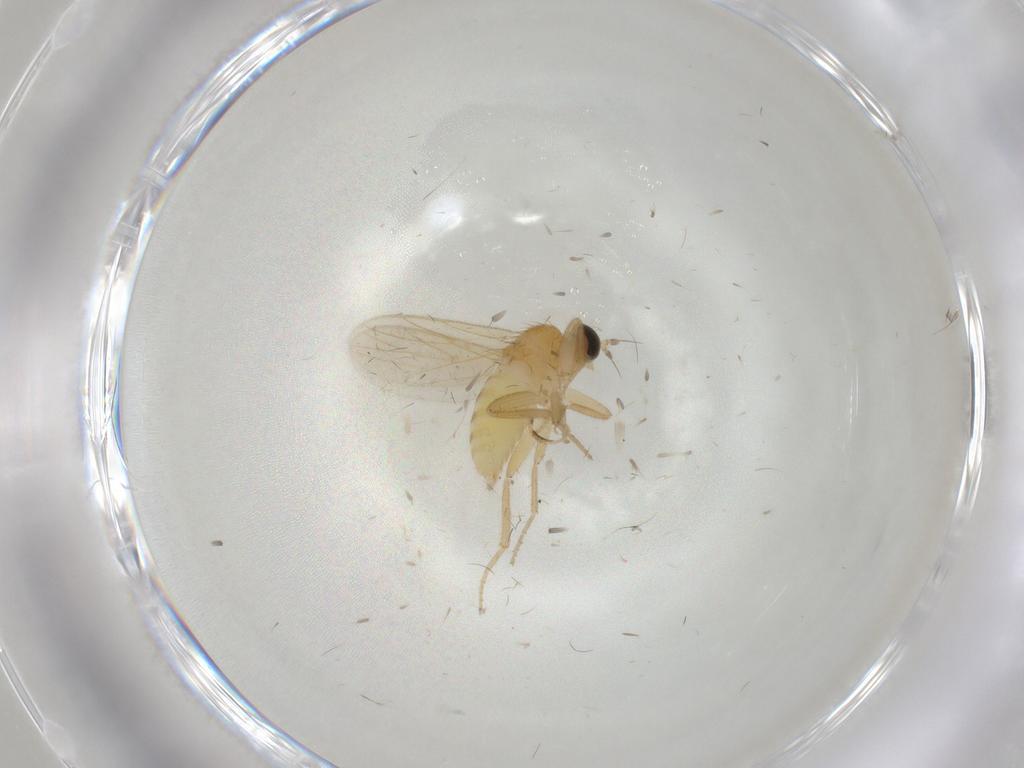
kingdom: Animalia
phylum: Arthropoda
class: Insecta
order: Diptera
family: Hybotidae
